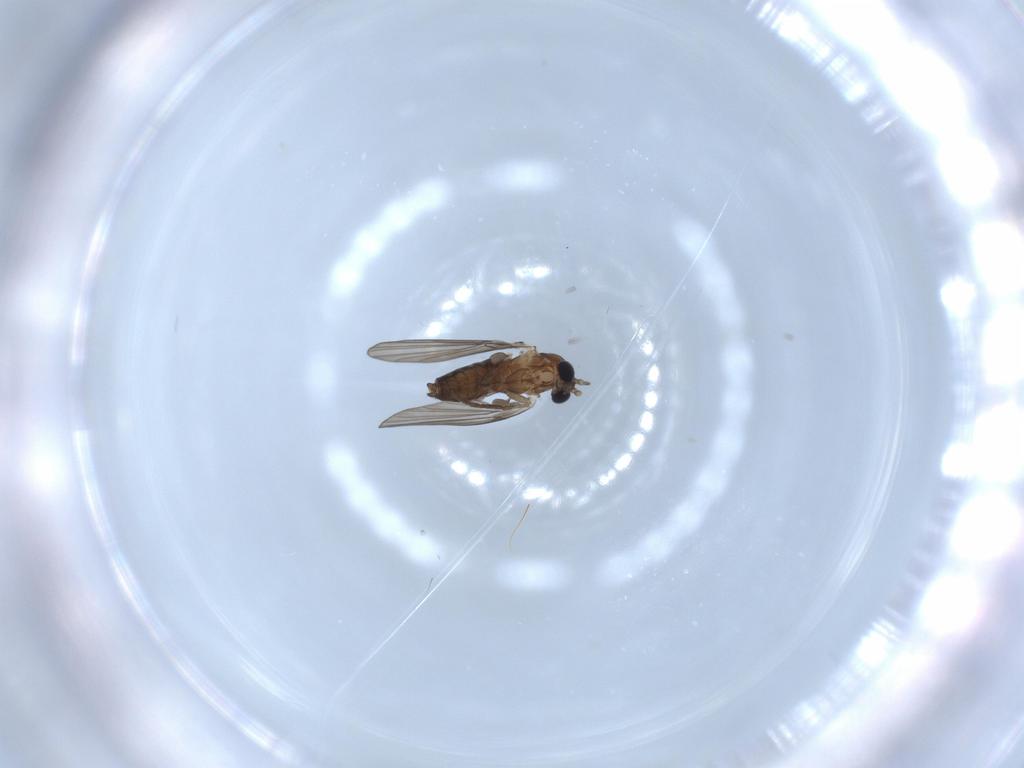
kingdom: Animalia
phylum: Arthropoda
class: Insecta
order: Diptera
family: Psychodidae
